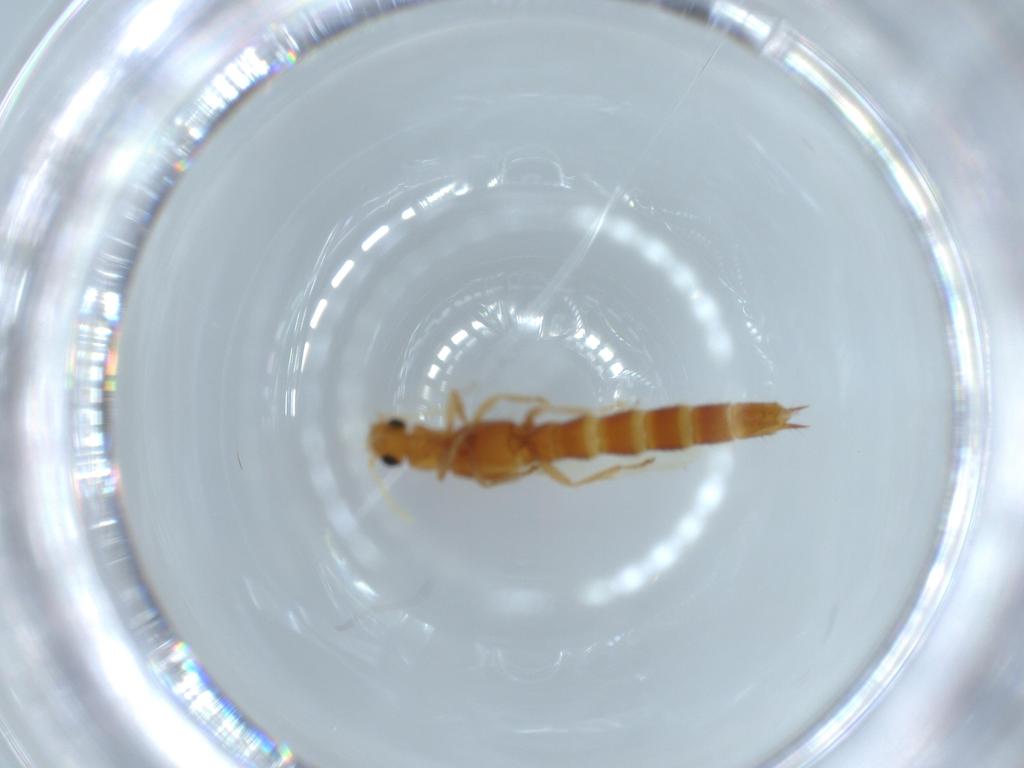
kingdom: Animalia
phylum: Arthropoda
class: Insecta
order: Coleoptera
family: Staphylinidae
